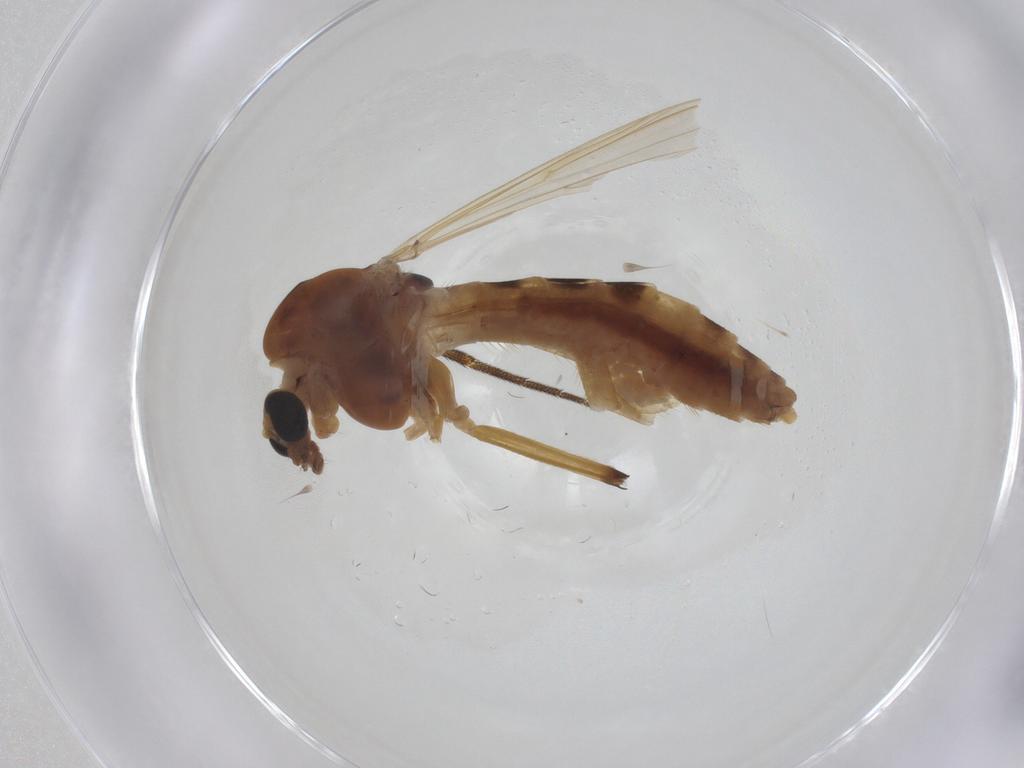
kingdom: Animalia
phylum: Arthropoda
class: Insecta
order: Diptera
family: Chironomidae
